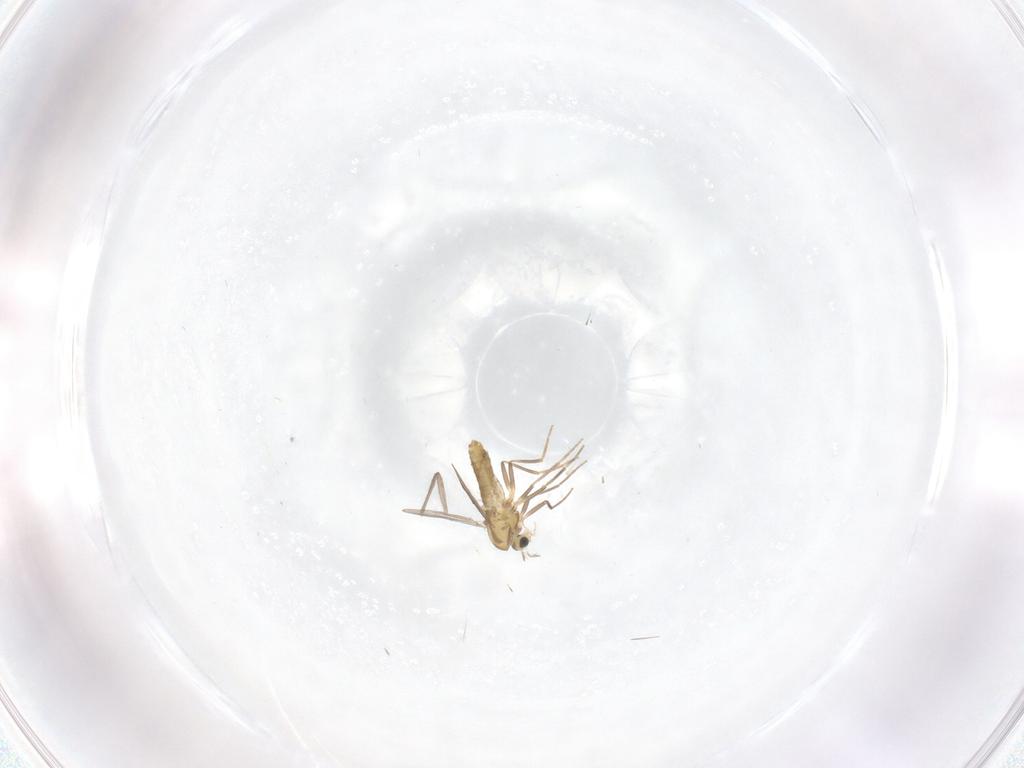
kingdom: Animalia
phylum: Arthropoda
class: Insecta
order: Diptera
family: Chironomidae
